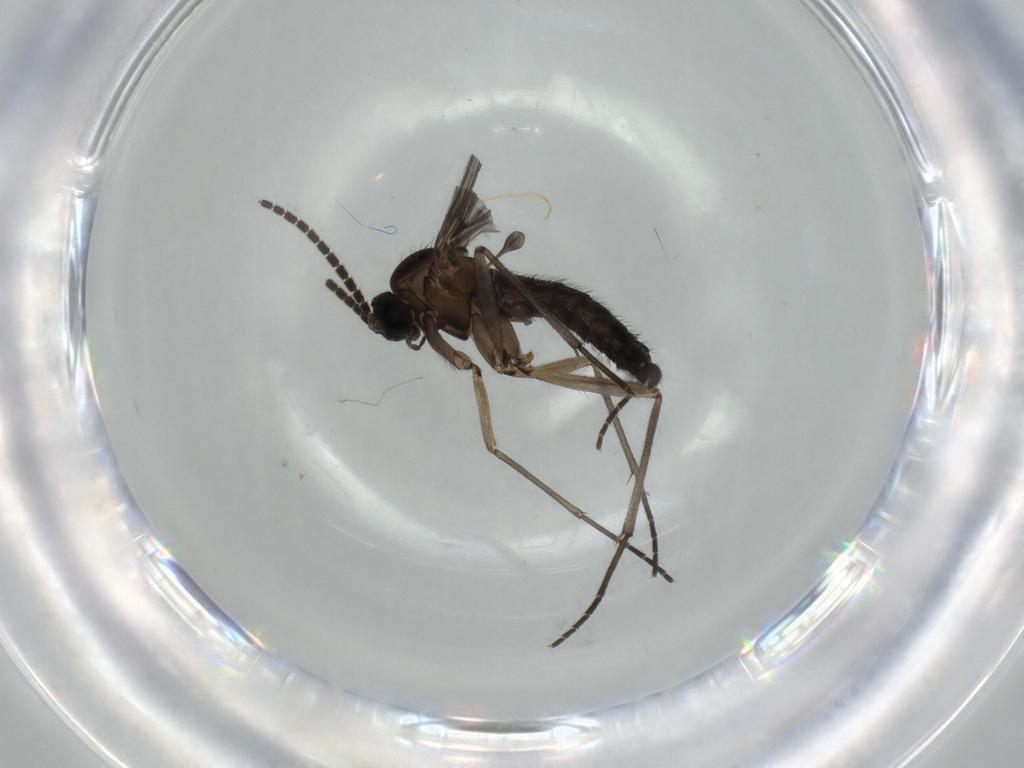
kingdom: Animalia
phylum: Arthropoda
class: Insecta
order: Diptera
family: Sciaridae
